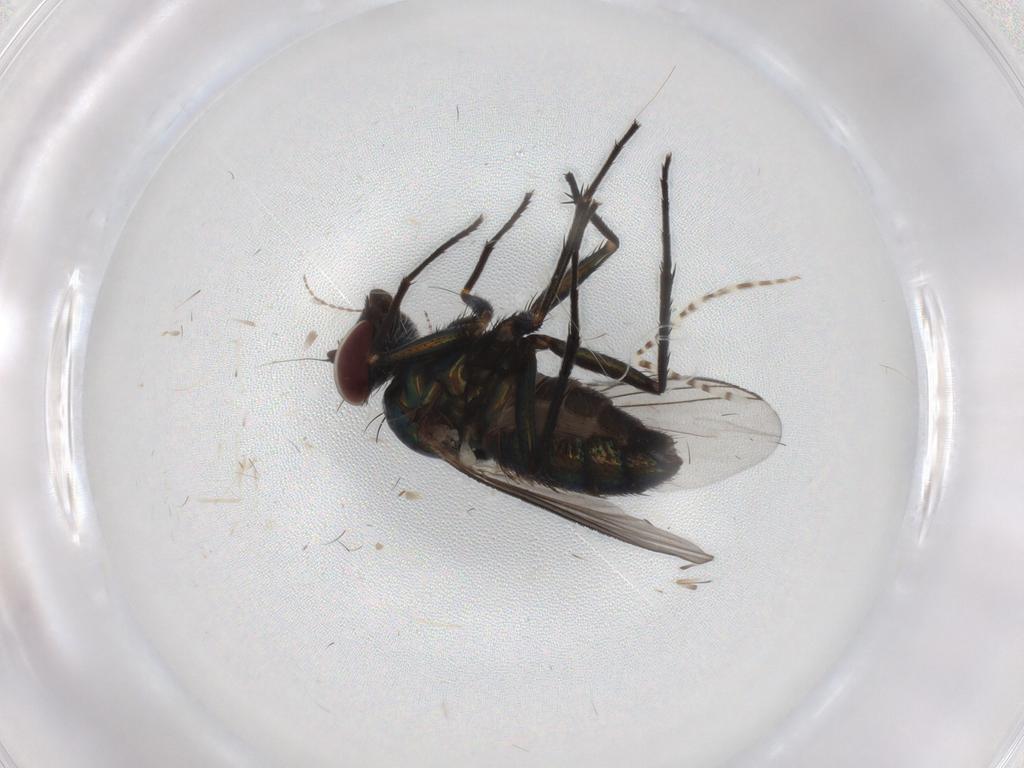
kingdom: Animalia
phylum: Arthropoda
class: Insecta
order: Diptera
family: Dolichopodidae
